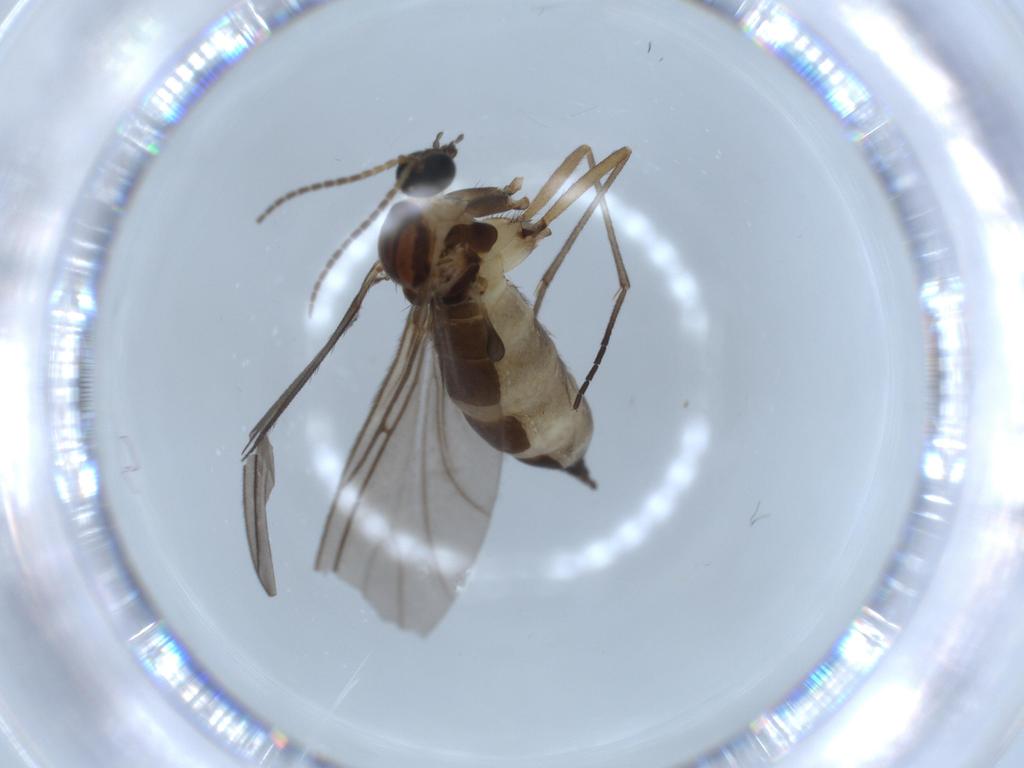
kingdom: Animalia
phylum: Arthropoda
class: Insecta
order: Diptera
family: Sciaridae
